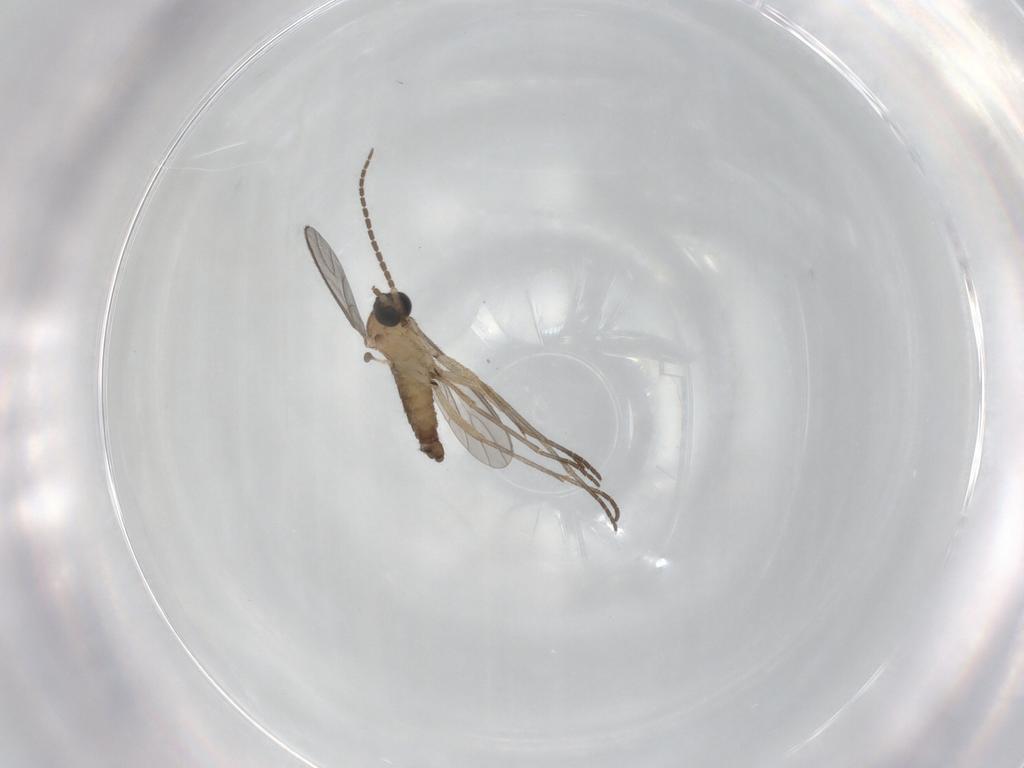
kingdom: Animalia
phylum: Arthropoda
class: Insecta
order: Diptera
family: Sciaridae
